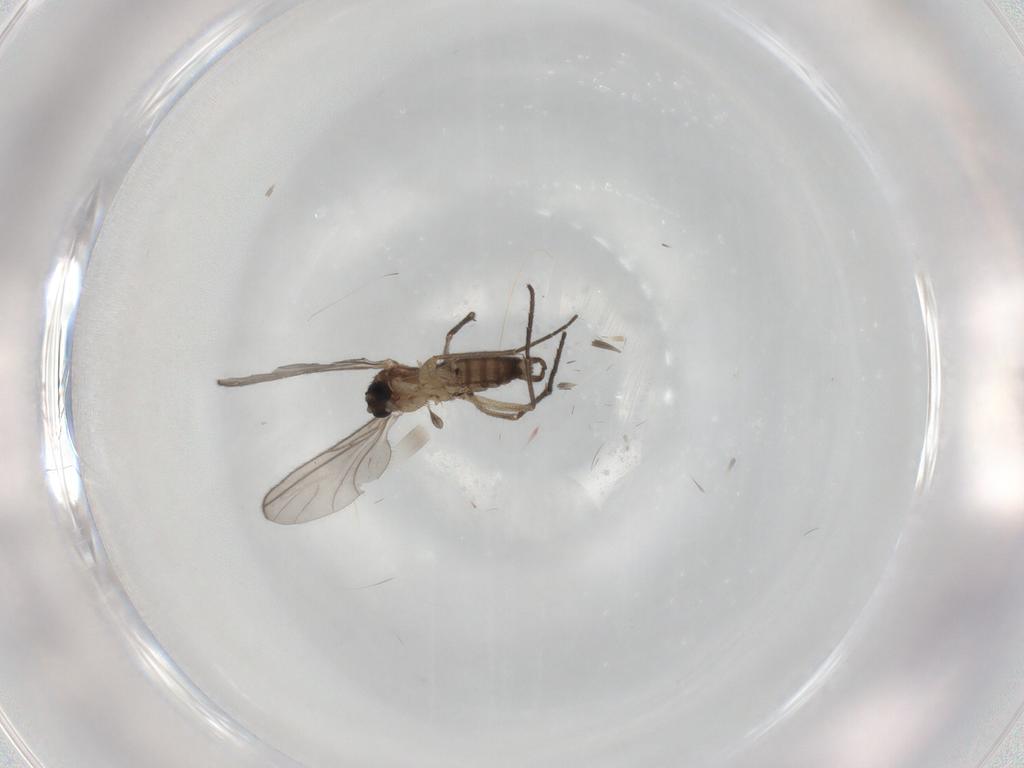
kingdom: Animalia
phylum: Arthropoda
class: Insecta
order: Diptera
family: Sciaridae
